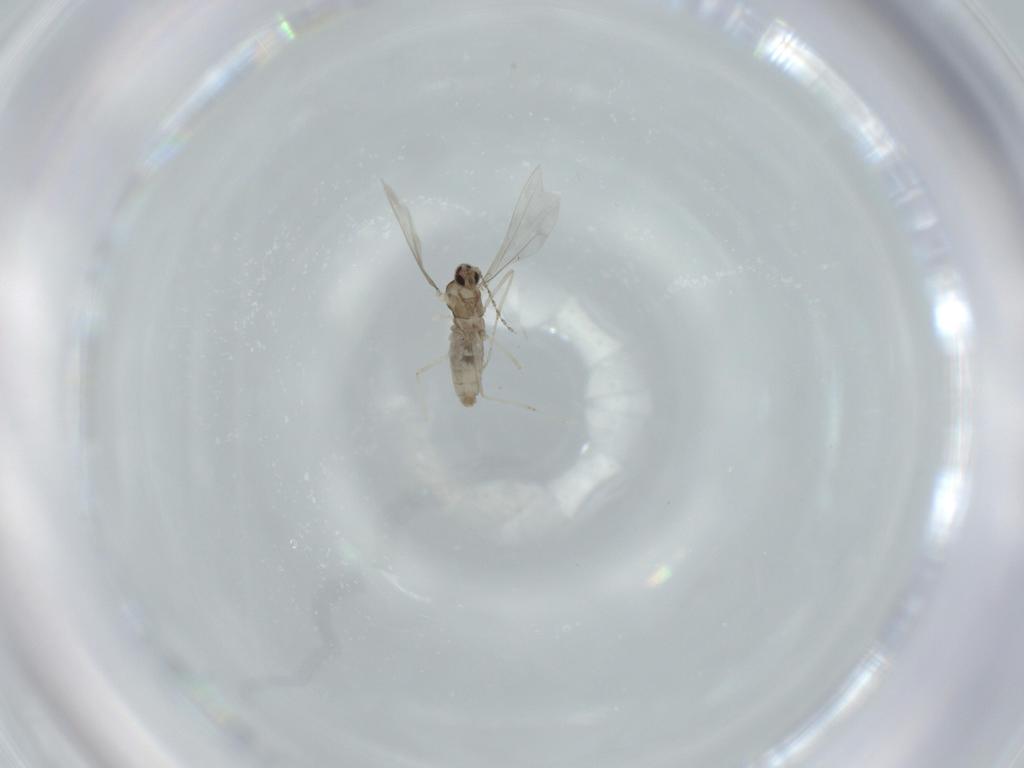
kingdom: Animalia
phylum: Arthropoda
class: Insecta
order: Diptera
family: Cecidomyiidae
